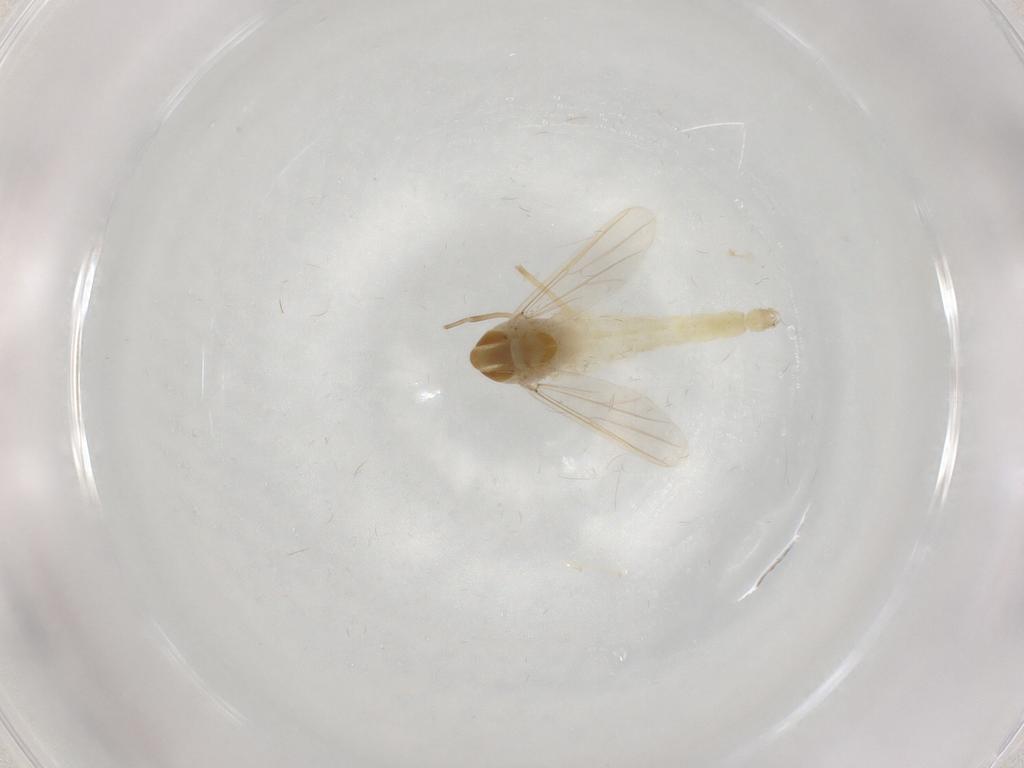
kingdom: Animalia
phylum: Arthropoda
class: Insecta
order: Diptera
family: Chironomidae
